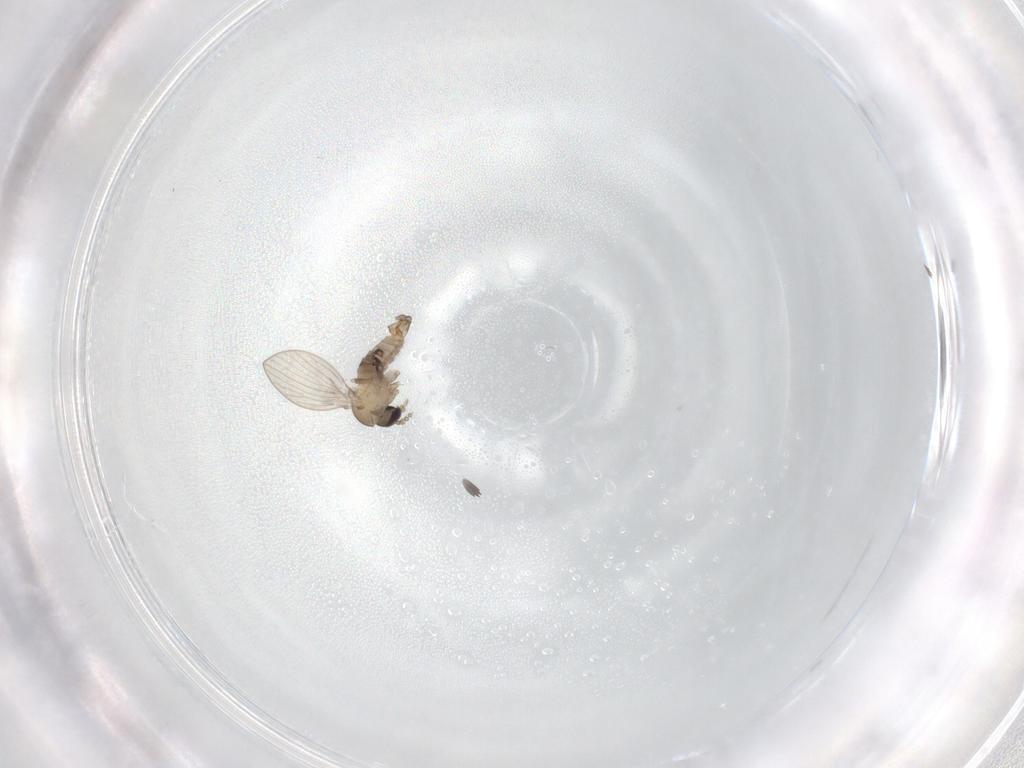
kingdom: Animalia
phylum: Arthropoda
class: Insecta
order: Diptera
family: Psychodidae
